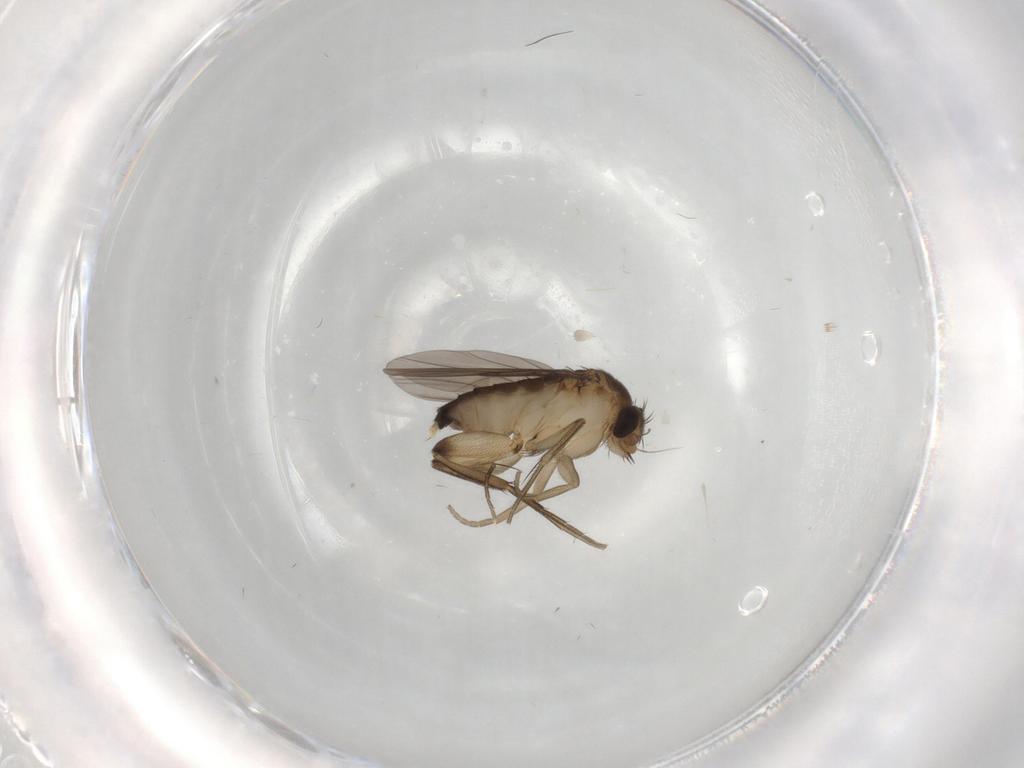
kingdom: Animalia
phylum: Arthropoda
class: Insecta
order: Diptera
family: Phoridae
